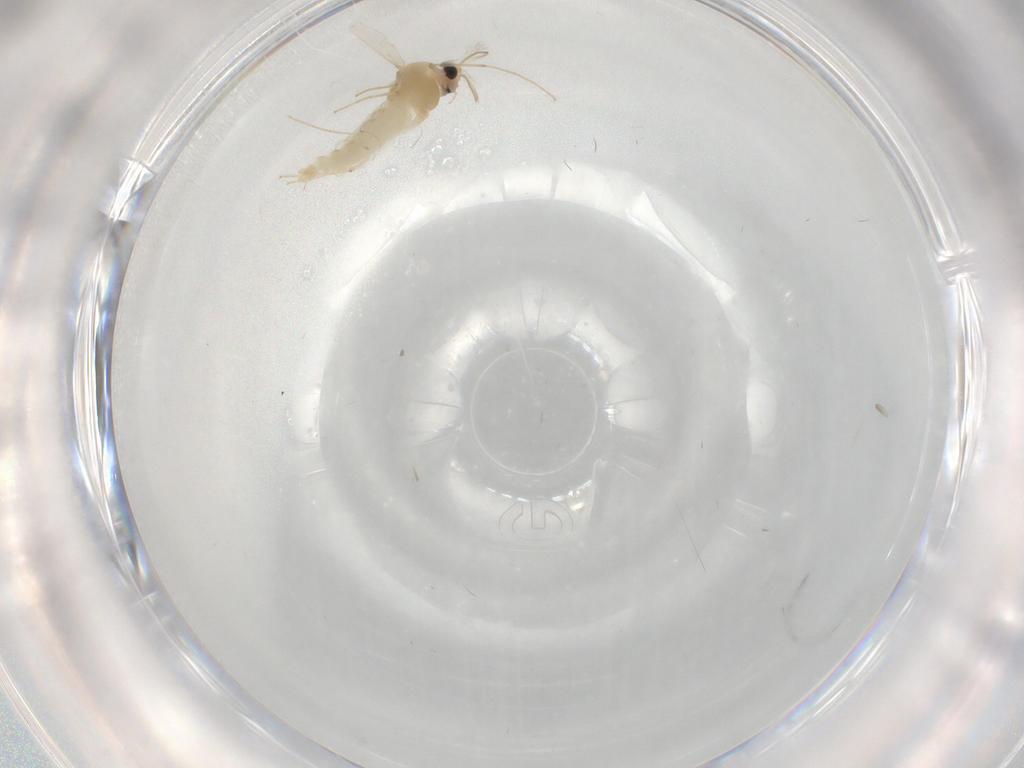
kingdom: Animalia
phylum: Arthropoda
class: Insecta
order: Diptera
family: Chironomidae
